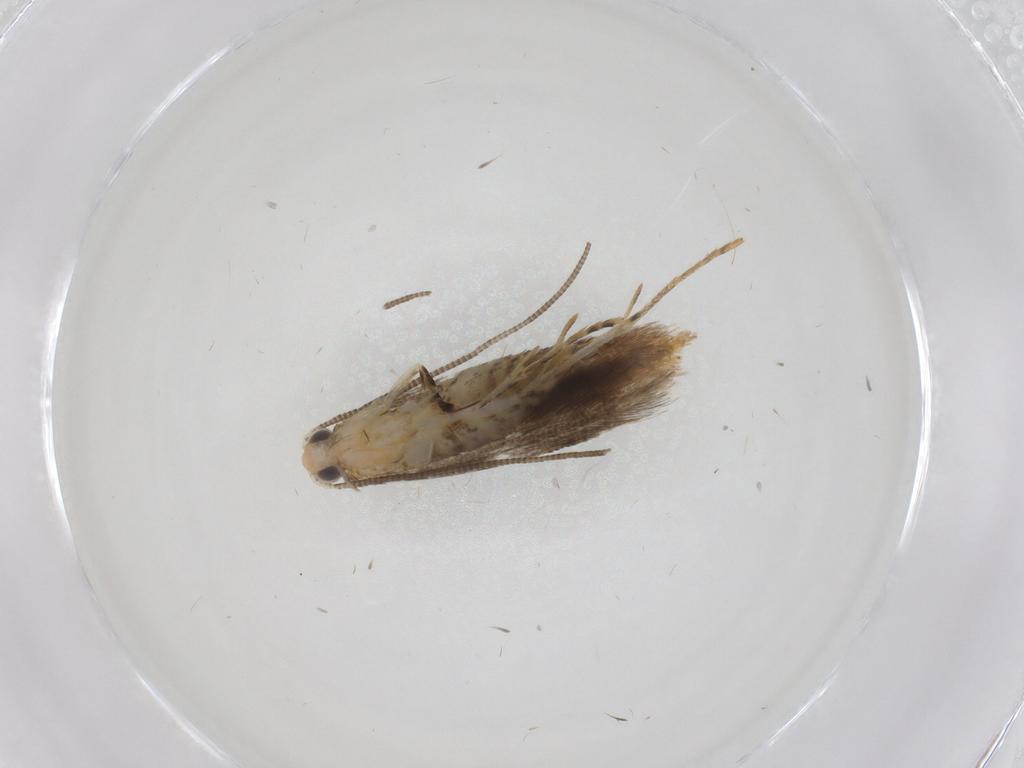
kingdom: Animalia
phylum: Arthropoda
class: Insecta
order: Lepidoptera
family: Tineidae
